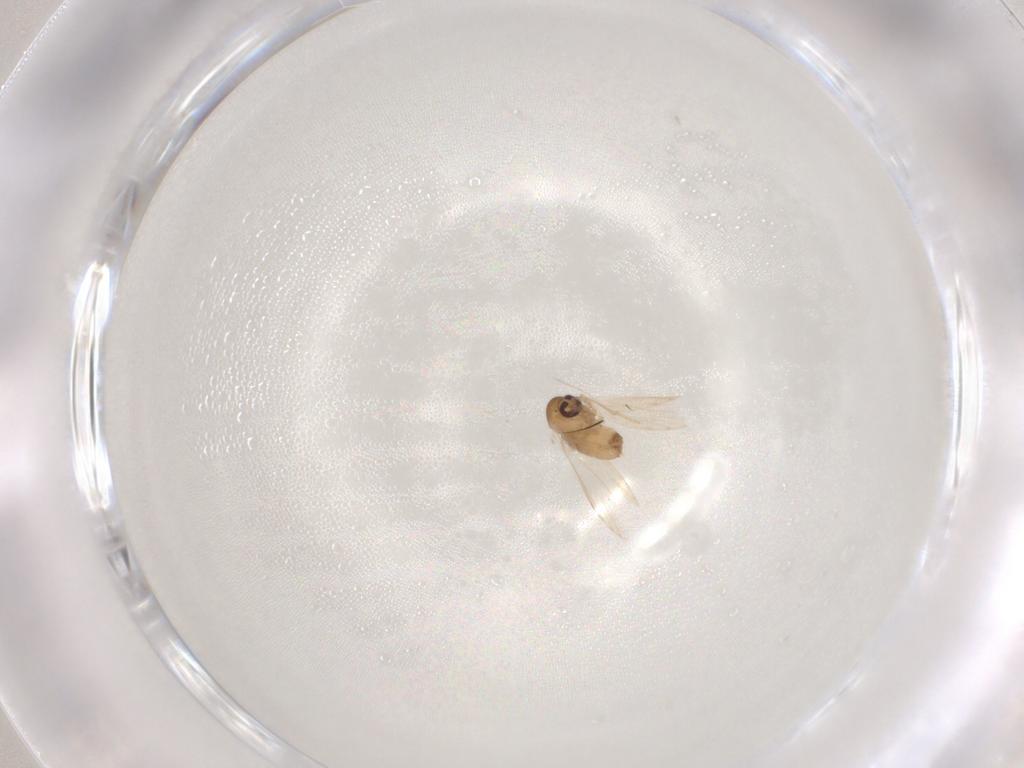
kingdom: Animalia
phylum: Arthropoda
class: Insecta
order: Diptera
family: Psychodidae
